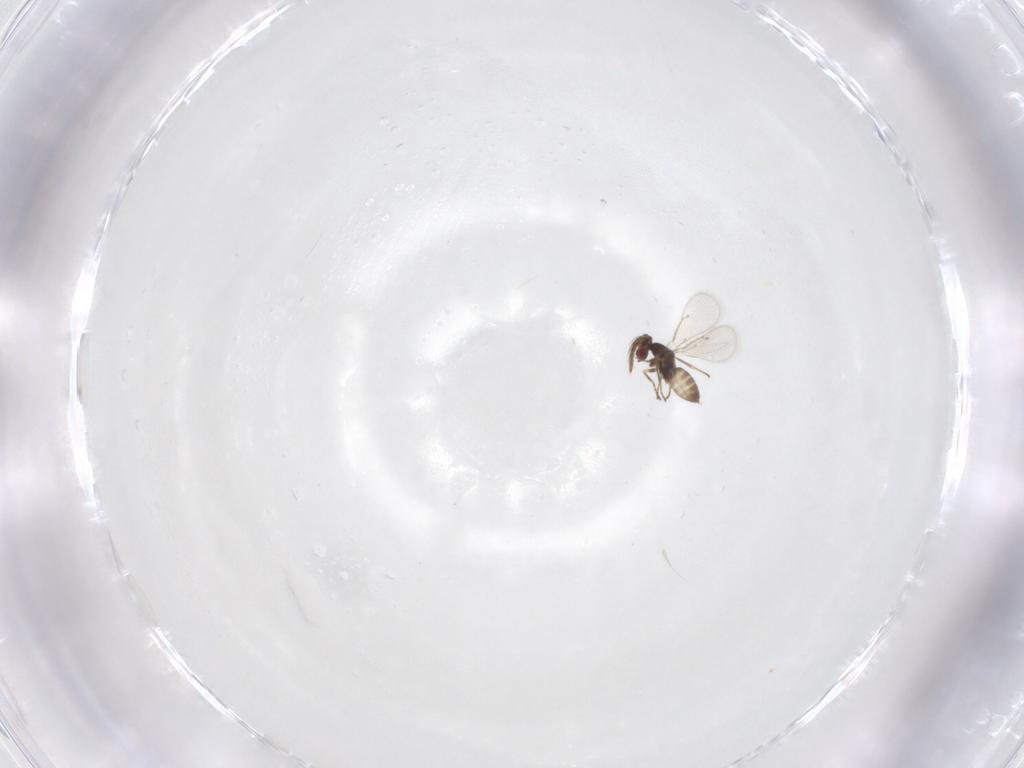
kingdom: Animalia
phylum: Arthropoda
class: Insecta
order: Hymenoptera
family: Eulophidae
